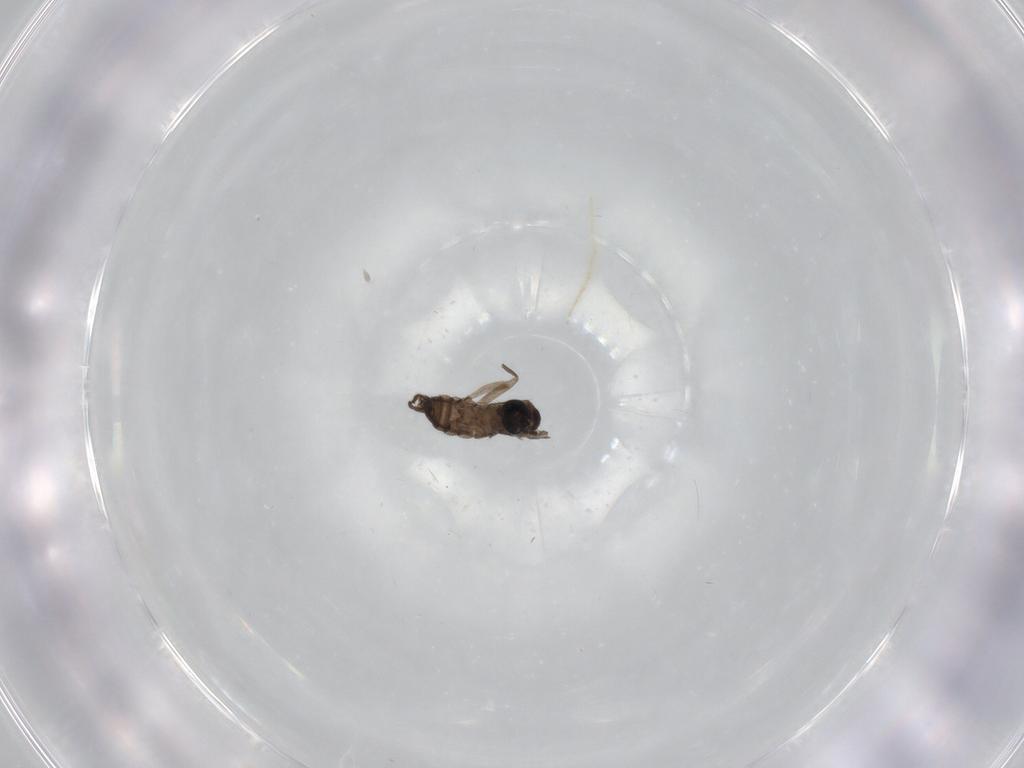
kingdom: Animalia
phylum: Arthropoda
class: Insecta
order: Diptera
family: Sciaridae
